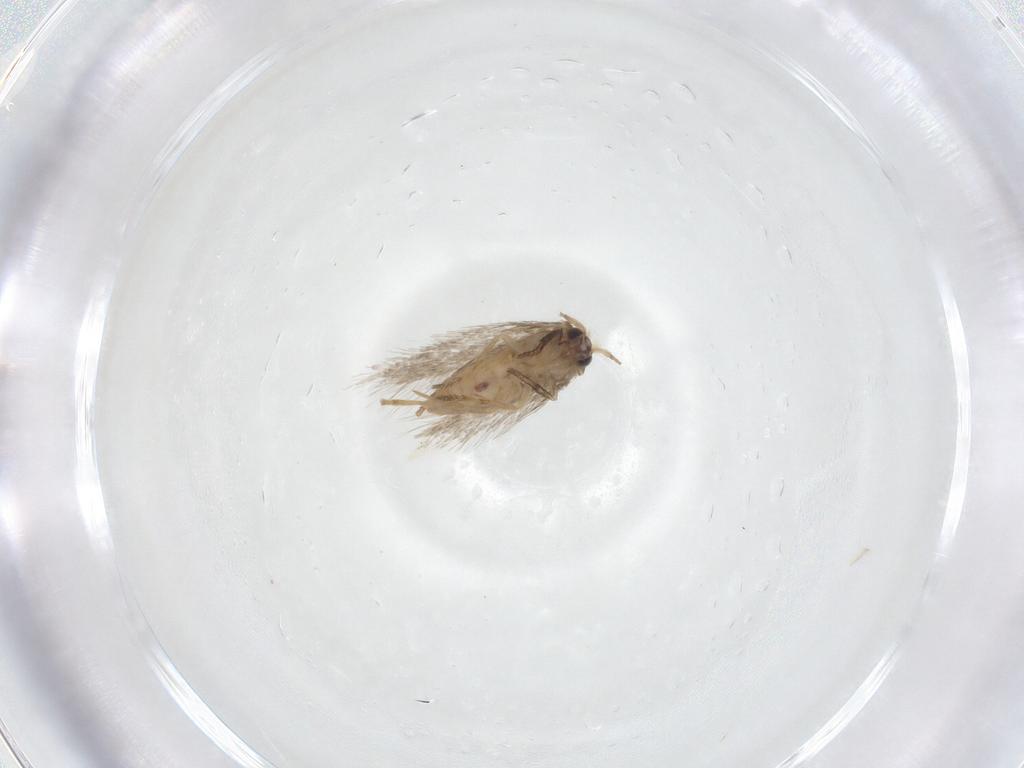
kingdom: Animalia
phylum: Arthropoda
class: Insecta
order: Lepidoptera
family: Nepticulidae
